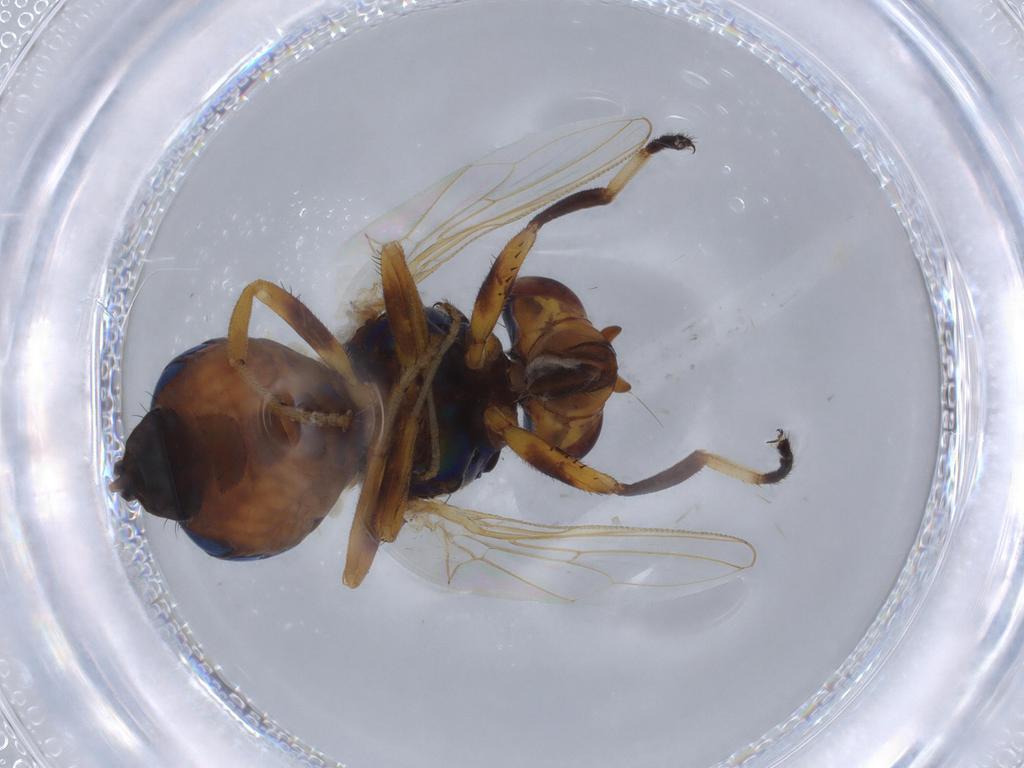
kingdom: Animalia
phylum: Arthropoda
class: Insecta
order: Diptera
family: Ulidiidae
